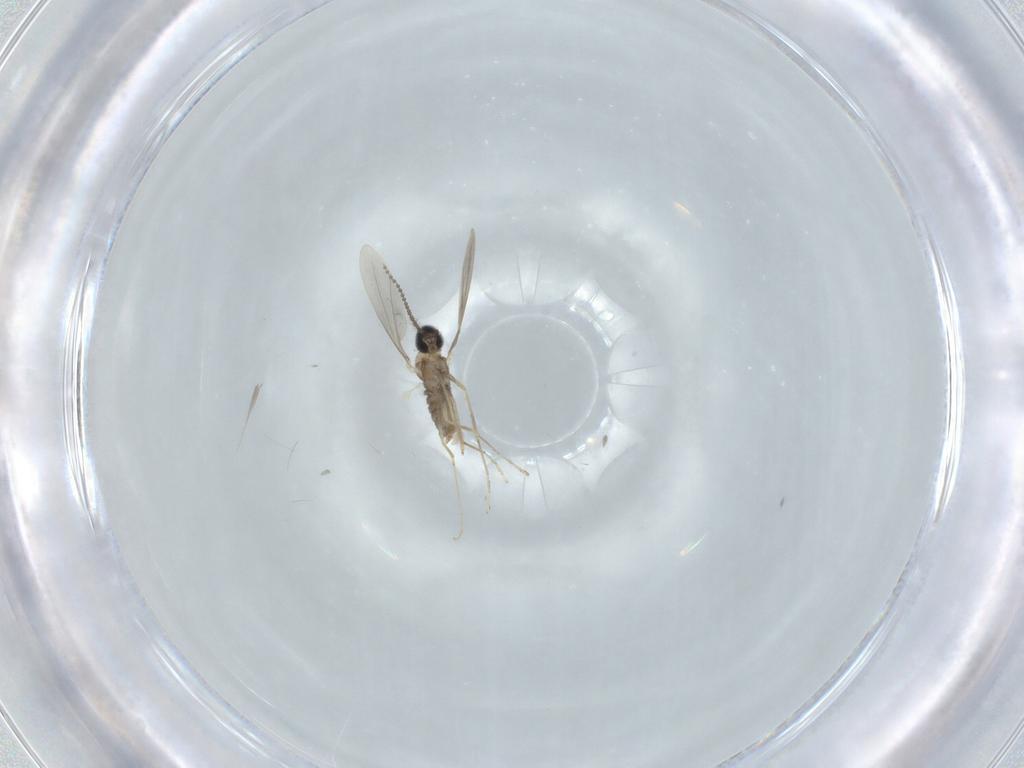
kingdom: Animalia
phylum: Arthropoda
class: Insecta
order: Diptera
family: Cecidomyiidae
